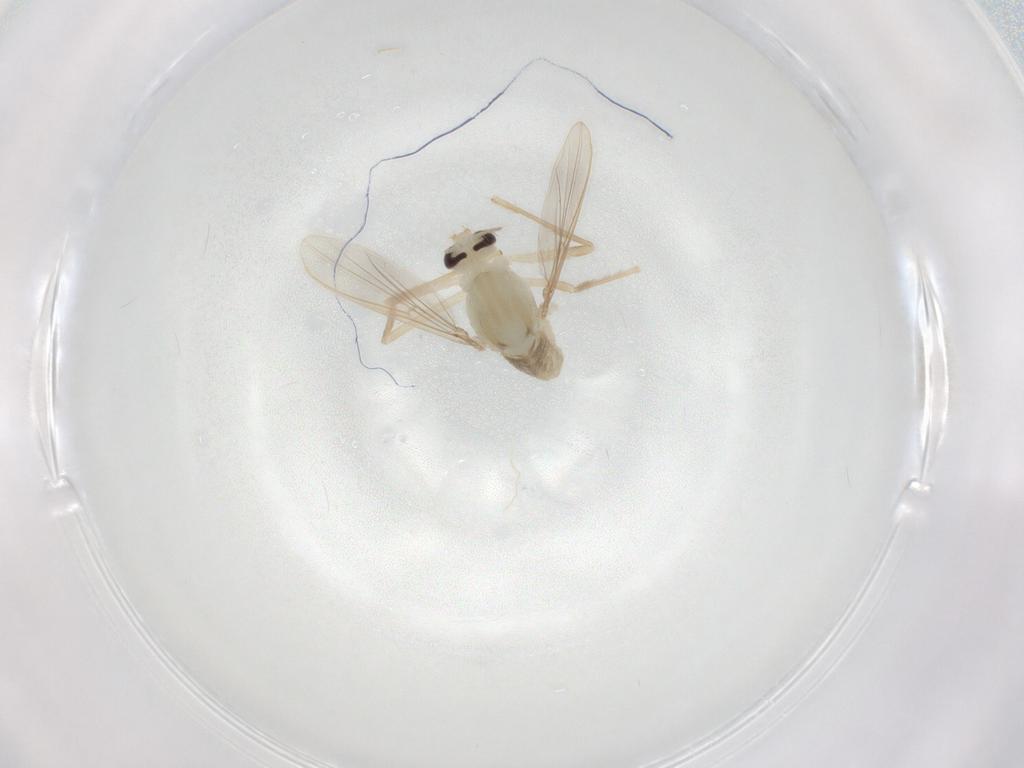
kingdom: Animalia
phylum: Arthropoda
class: Insecta
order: Diptera
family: Chironomidae
